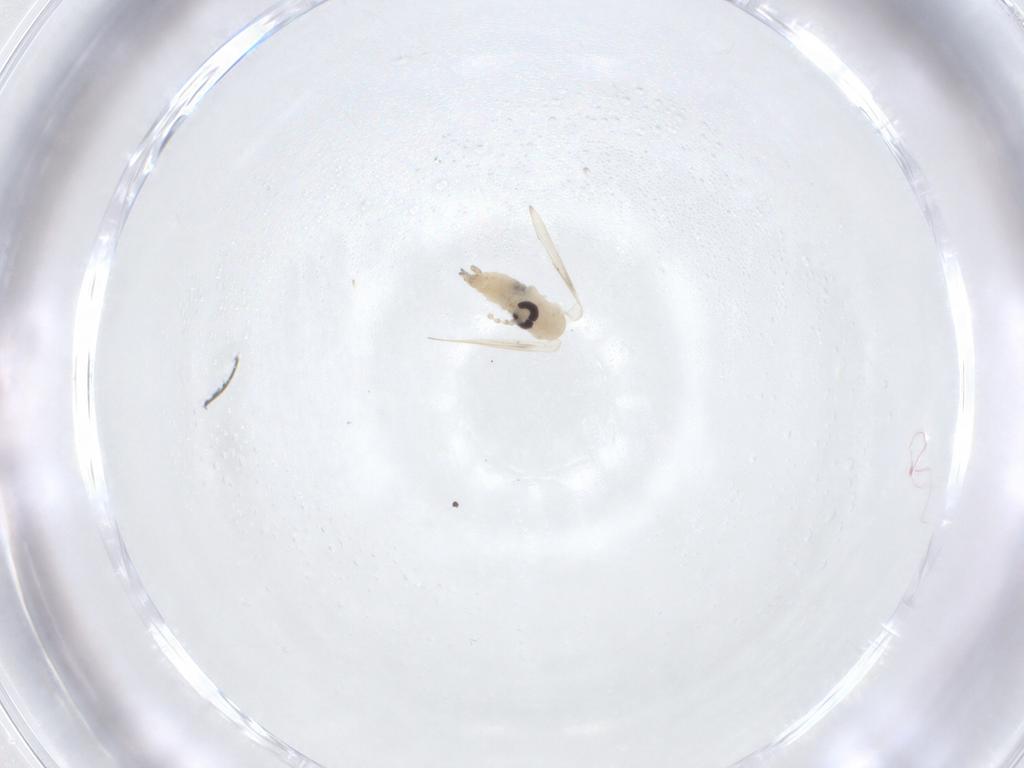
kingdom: Animalia
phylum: Arthropoda
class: Insecta
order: Diptera
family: Psychodidae
